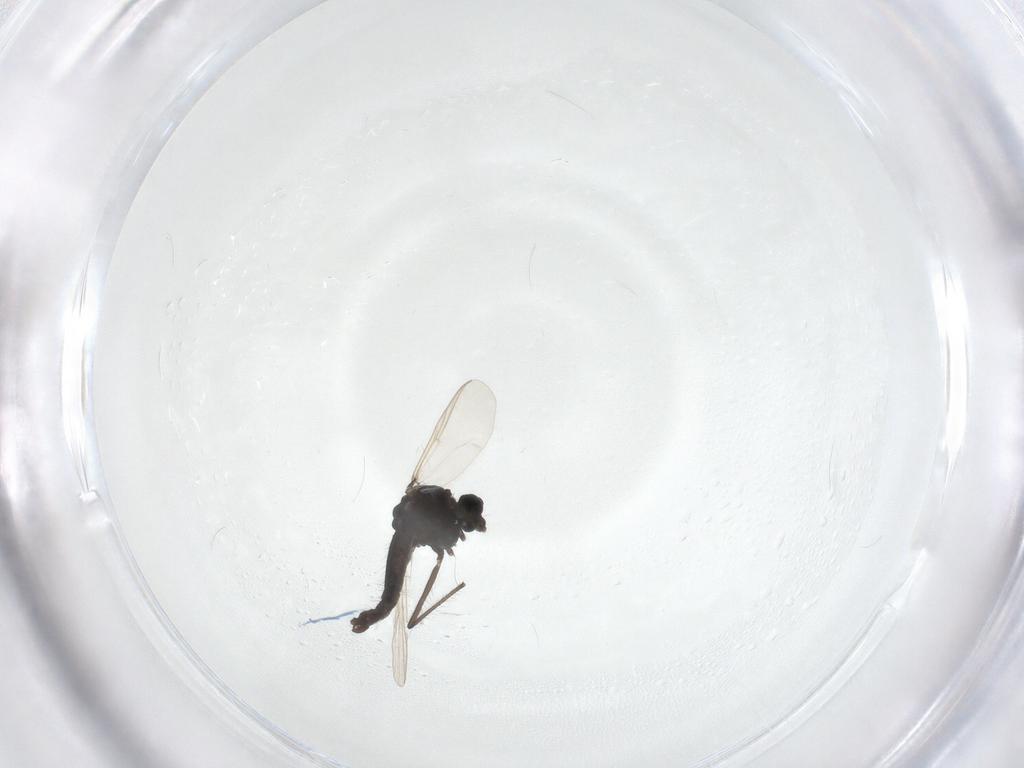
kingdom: Animalia
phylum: Arthropoda
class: Insecta
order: Diptera
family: Chironomidae
